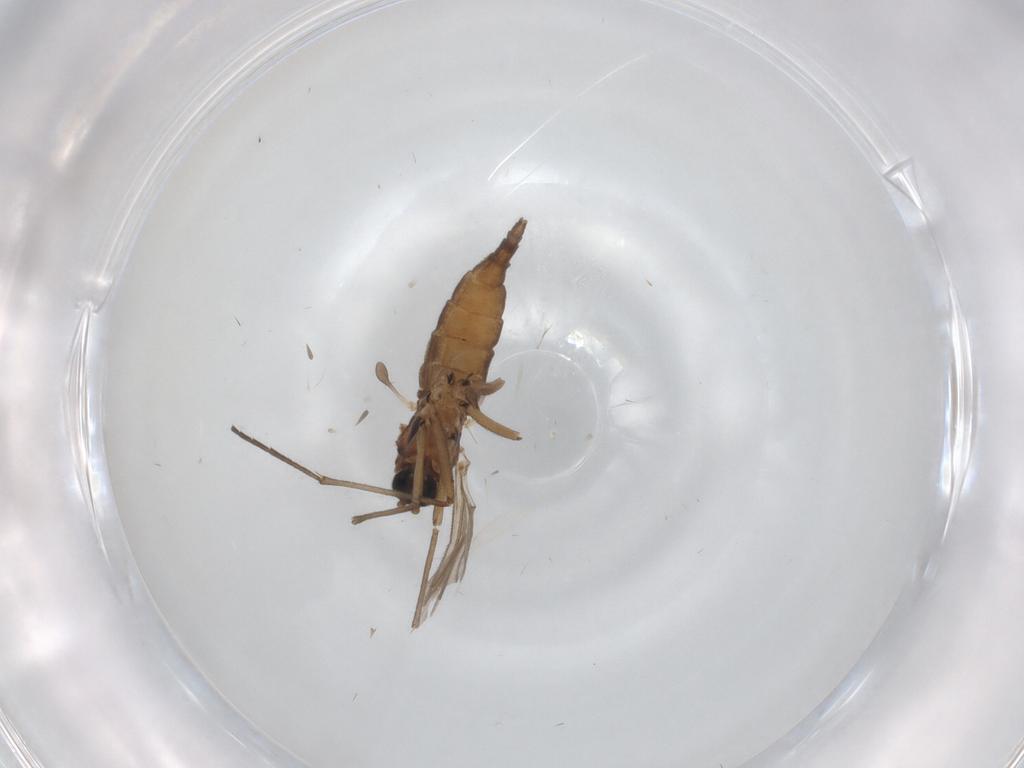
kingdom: Animalia
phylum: Arthropoda
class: Insecta
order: Diptera
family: Sciaridae
